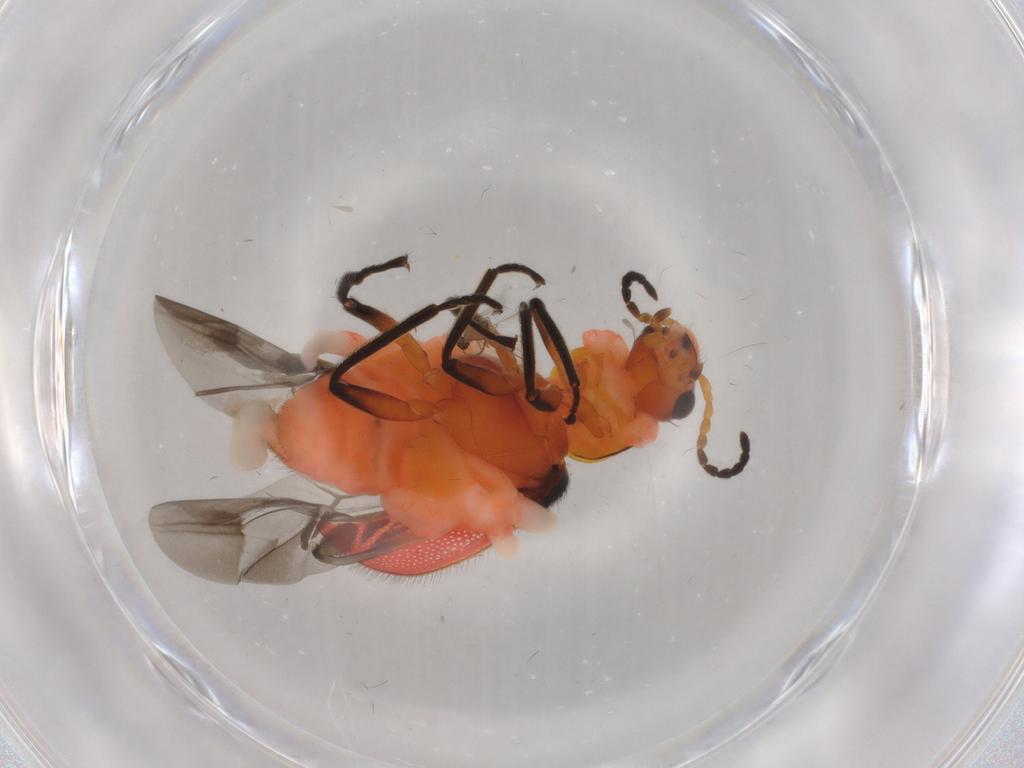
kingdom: Animalia
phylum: Arthropoda
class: Insecta
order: Coleoptera
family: Melyridae
